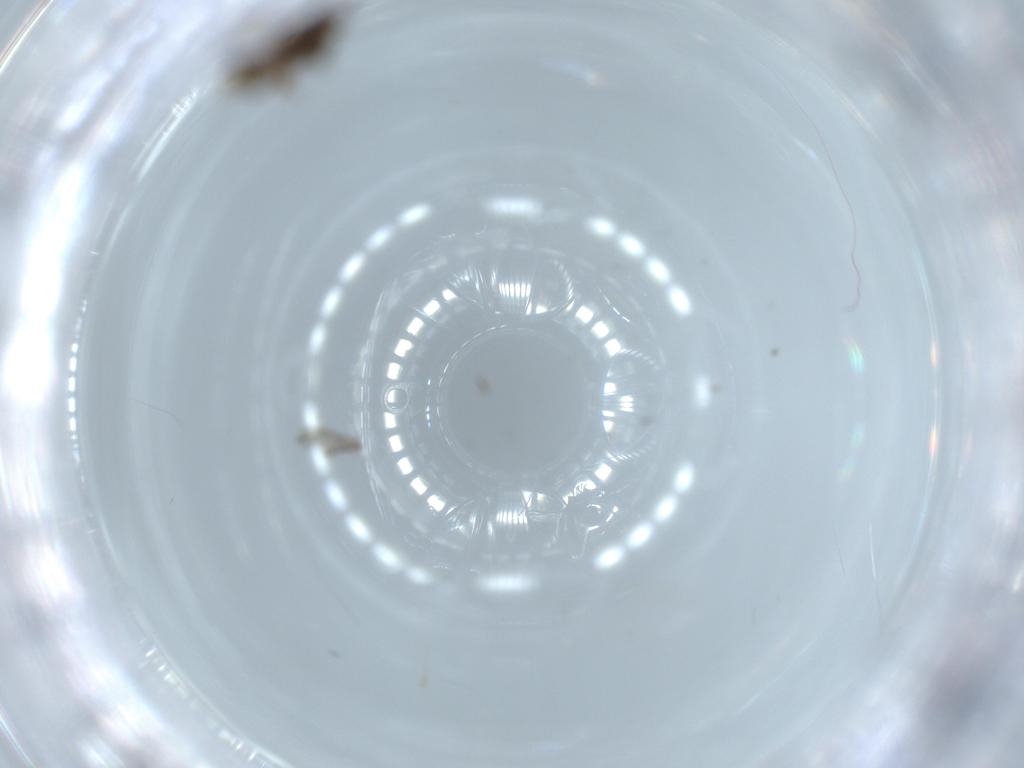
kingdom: Animalia
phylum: Arthropoda
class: Insecta
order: Diptera
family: Chironomidae
